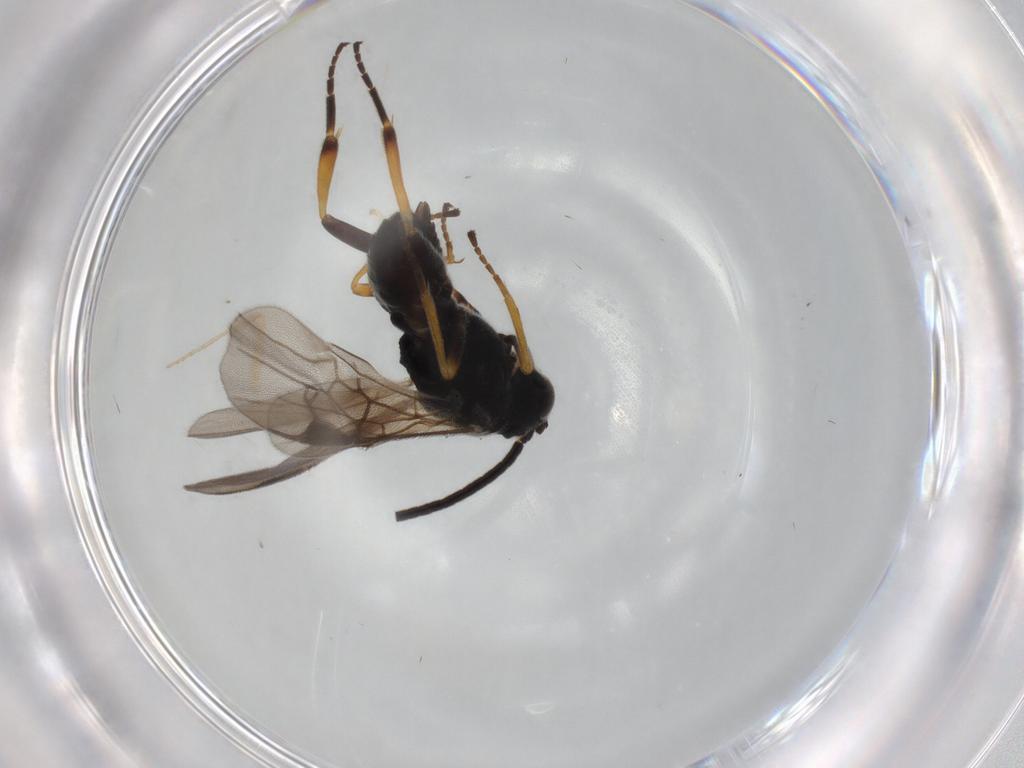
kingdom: Animalia
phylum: Arthropoda
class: Insecta
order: Hymenoptera
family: Braconidae
